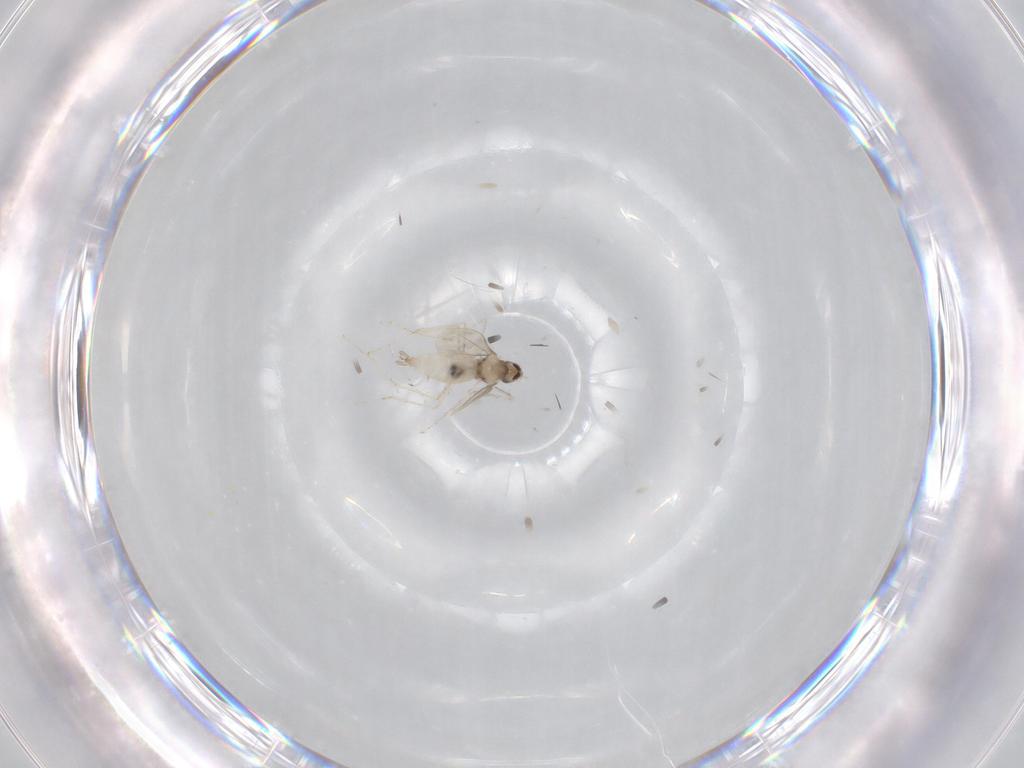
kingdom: Animalia
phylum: Arthropoda
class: Insecta
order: Diptera
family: Cecidomyiidae
